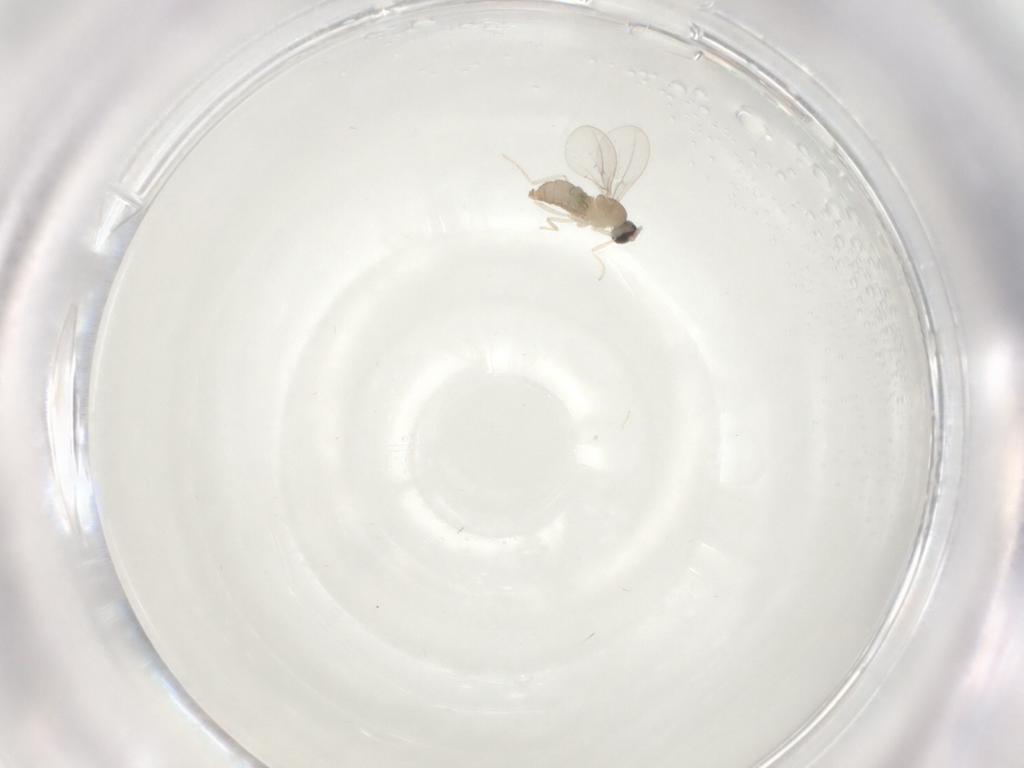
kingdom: Animalia
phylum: Arthropoda
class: Insecta
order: Diptera
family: Cecidomyiidae
